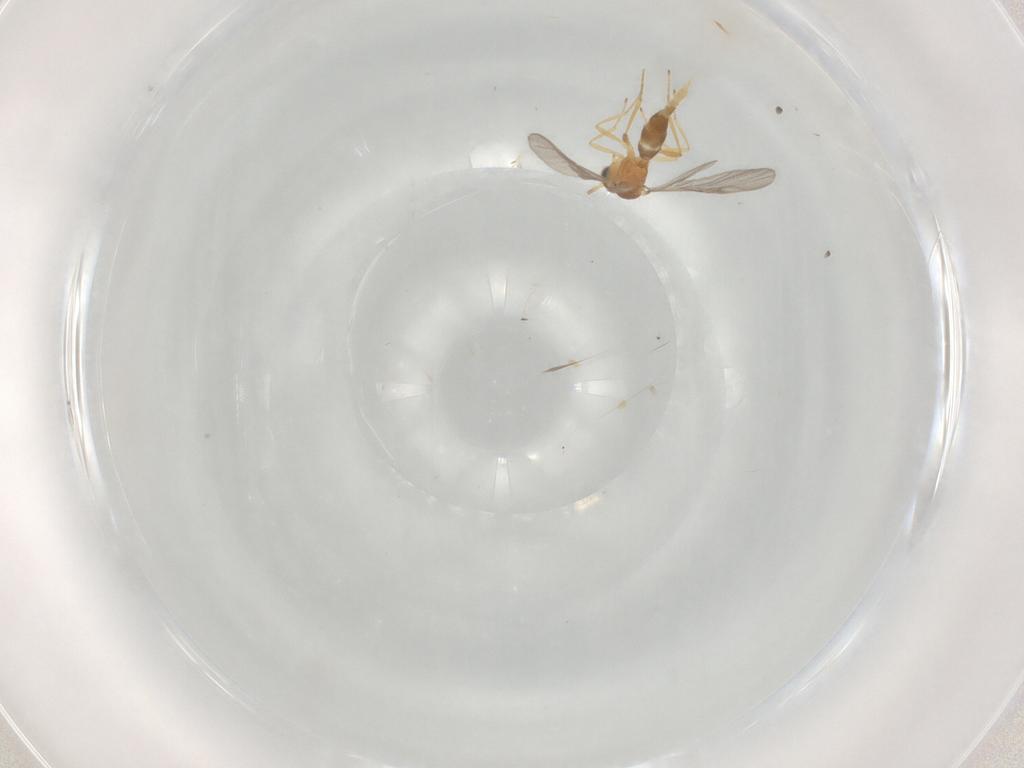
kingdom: Animalia
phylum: Arthropoda
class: Insecta
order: Hymenoptera
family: Braconidae
